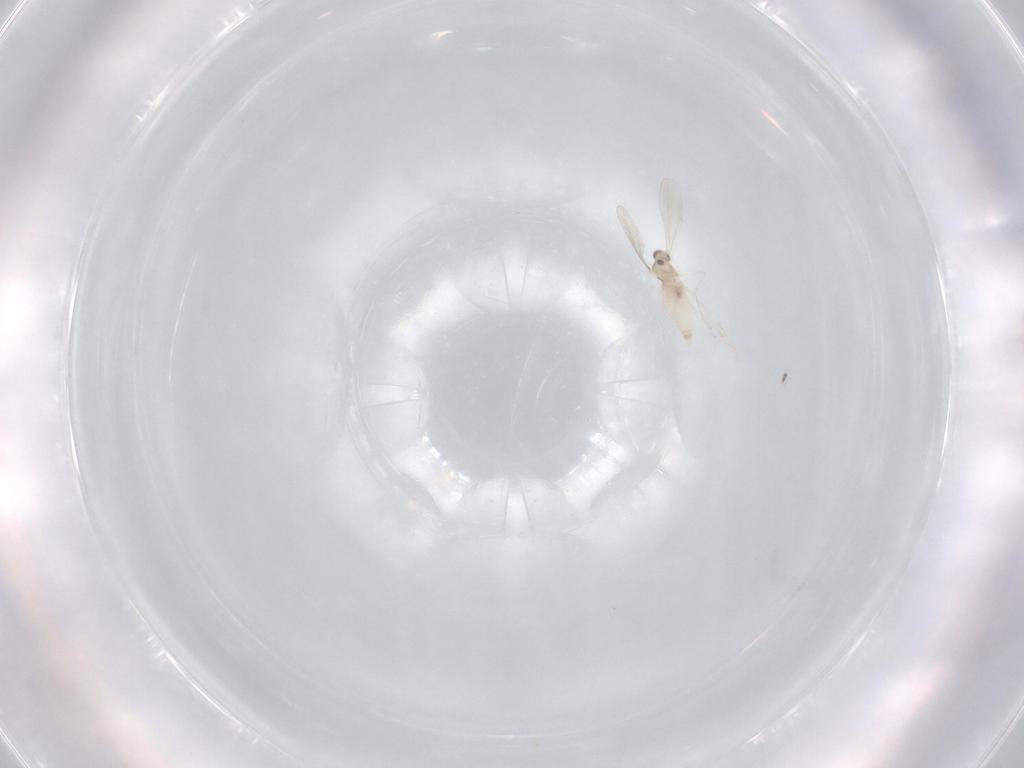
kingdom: Animalia
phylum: Arthropoda
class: Insecta
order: Diptera
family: Cecidomyiidae
